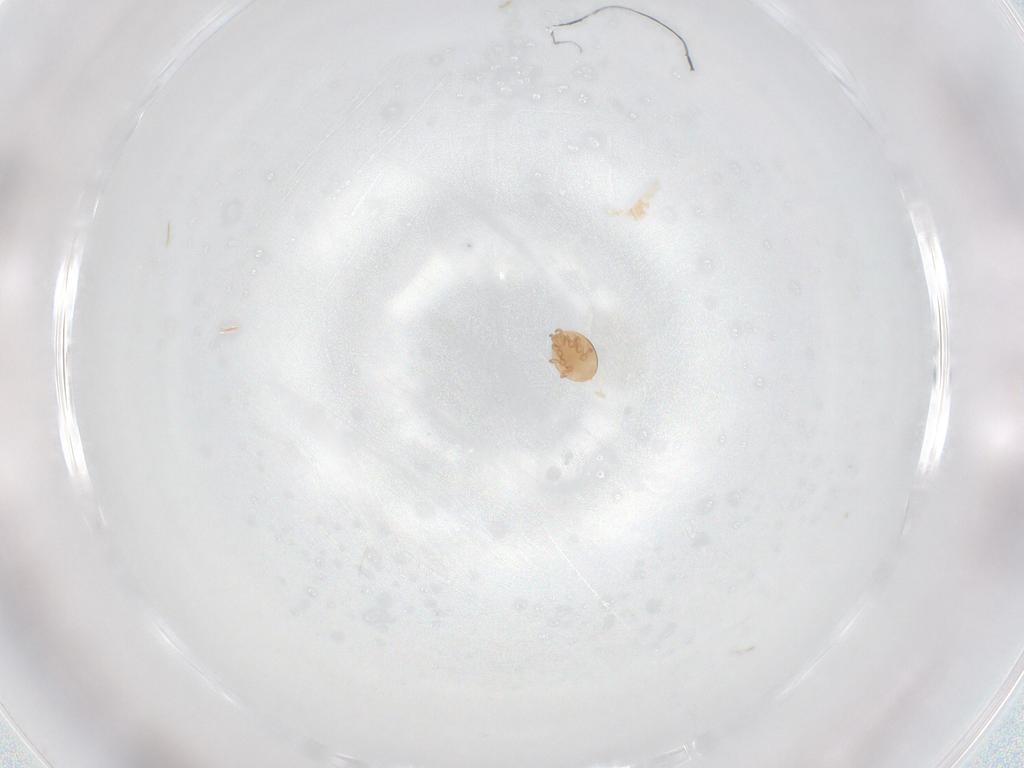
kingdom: Animalia
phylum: Arthropoda
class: Arachnida
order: Mesostigmata
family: Trematuridae
